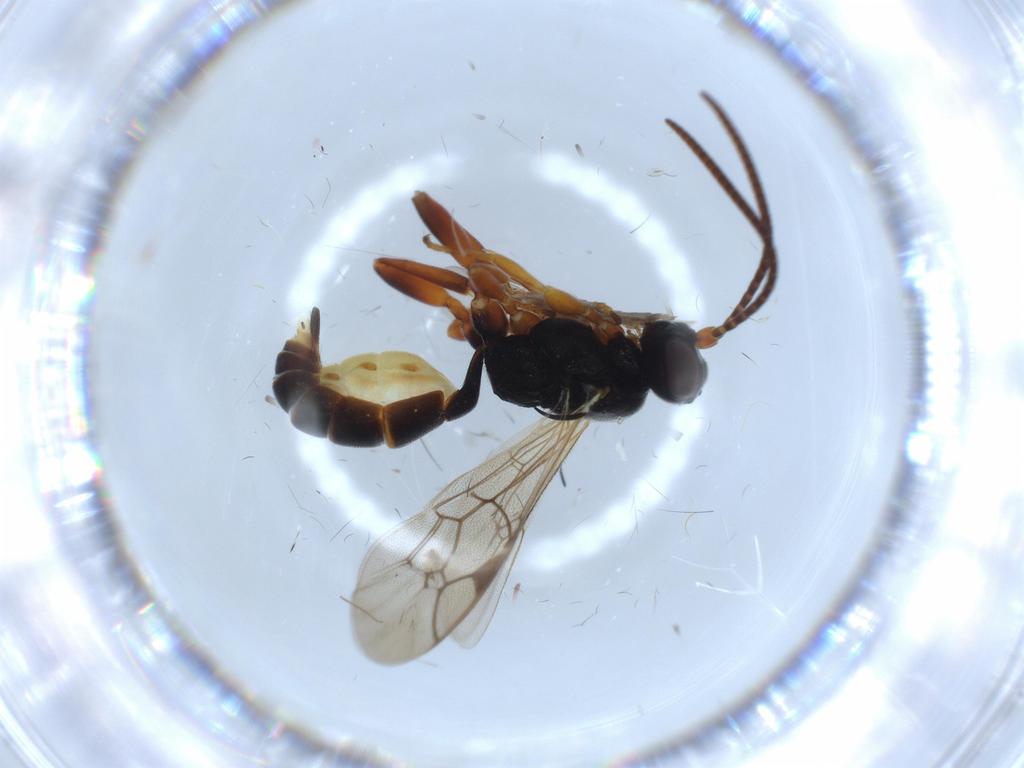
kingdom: Animalia
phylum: Arthropoda
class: Insecta
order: Hymenoptera
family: Ichneumonidae
